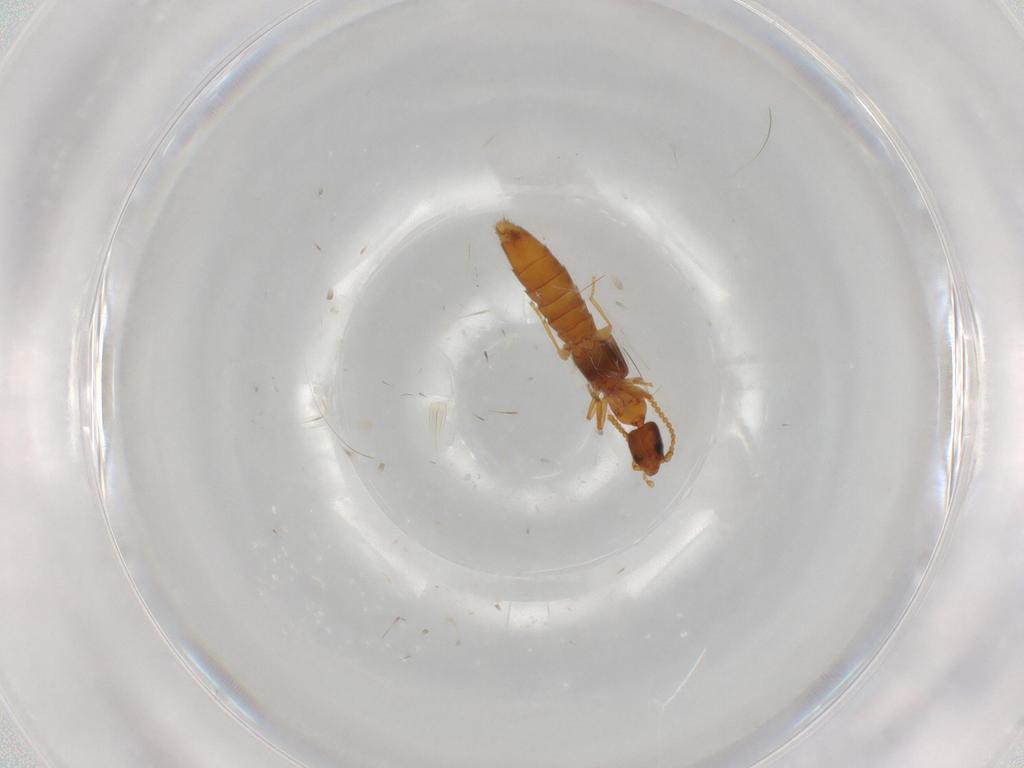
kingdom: Animalia
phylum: Arthropoda
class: Insecta
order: Coleoptera
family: Staphylinidae
